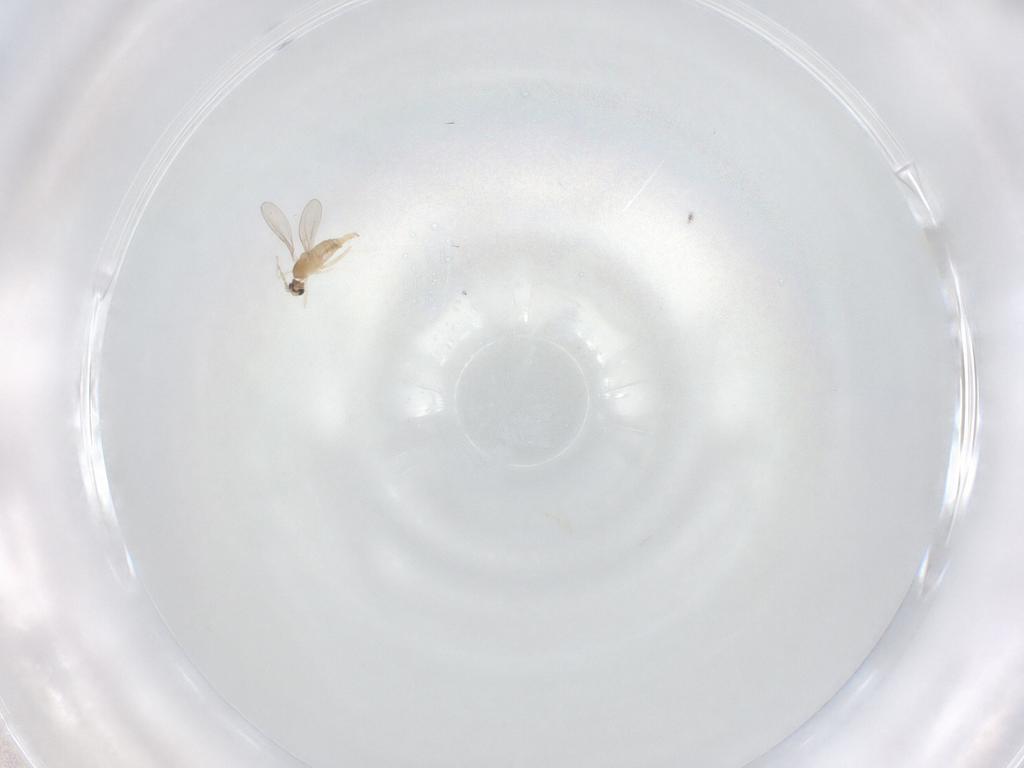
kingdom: Animalia
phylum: Arthropoda
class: Insecta
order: Diptera
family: Cecidomyiidae
